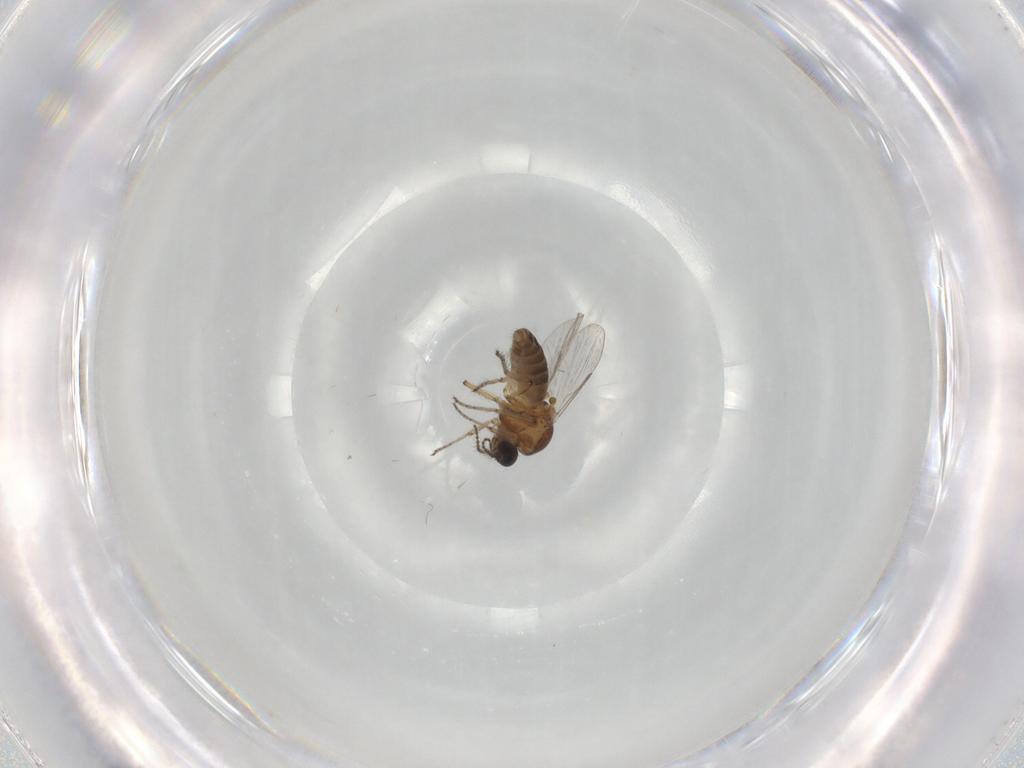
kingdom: Animalia
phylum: Arthropoda
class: Insecta
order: Diptera
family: Ceratopogonidae
